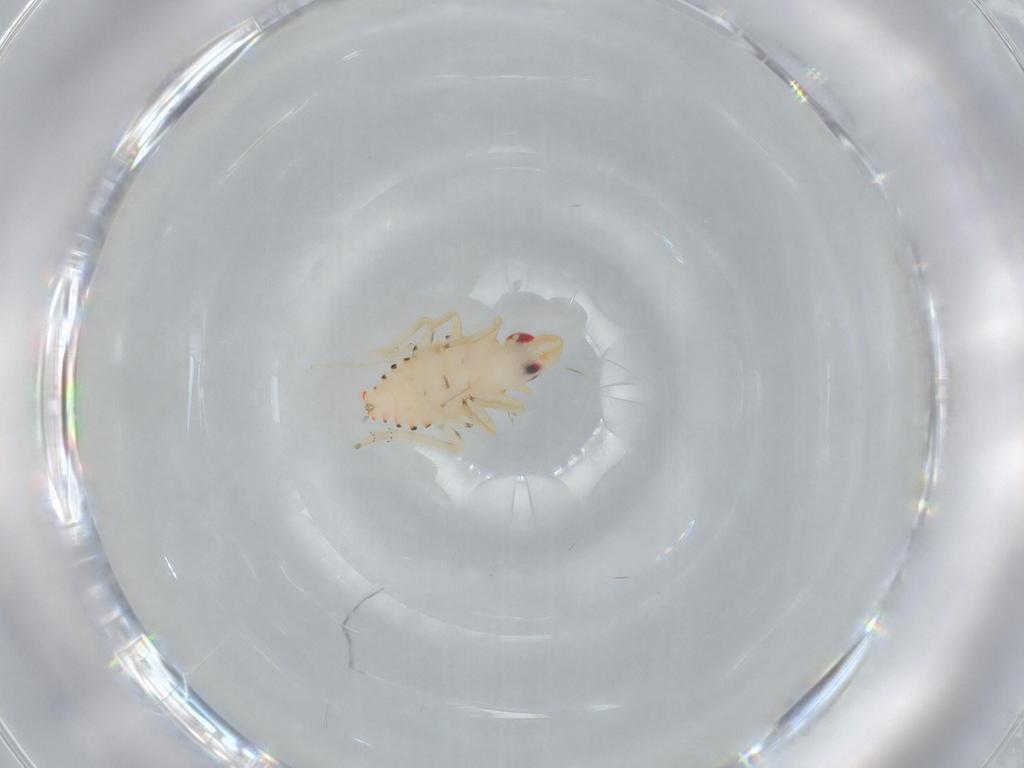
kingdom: Animalia
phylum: Arthropoda
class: Insecta
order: Hemiptera
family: Tropiduchidae
